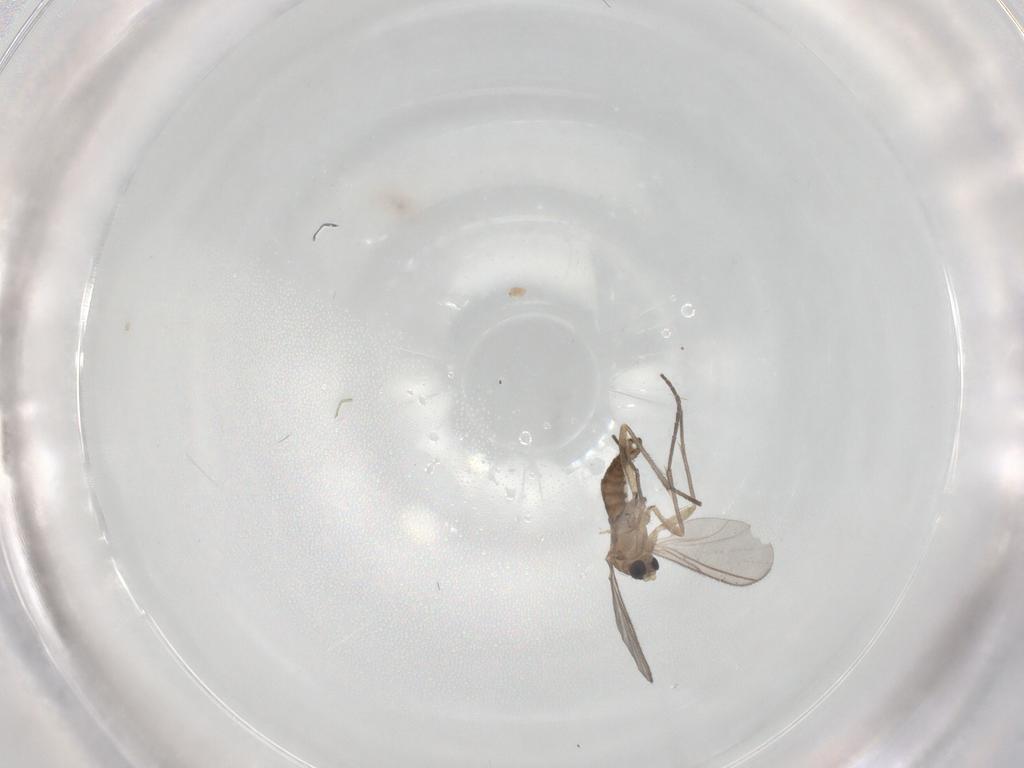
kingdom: Animalia
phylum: Arthropoda
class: Insecta
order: Diptera
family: Sciaridae
